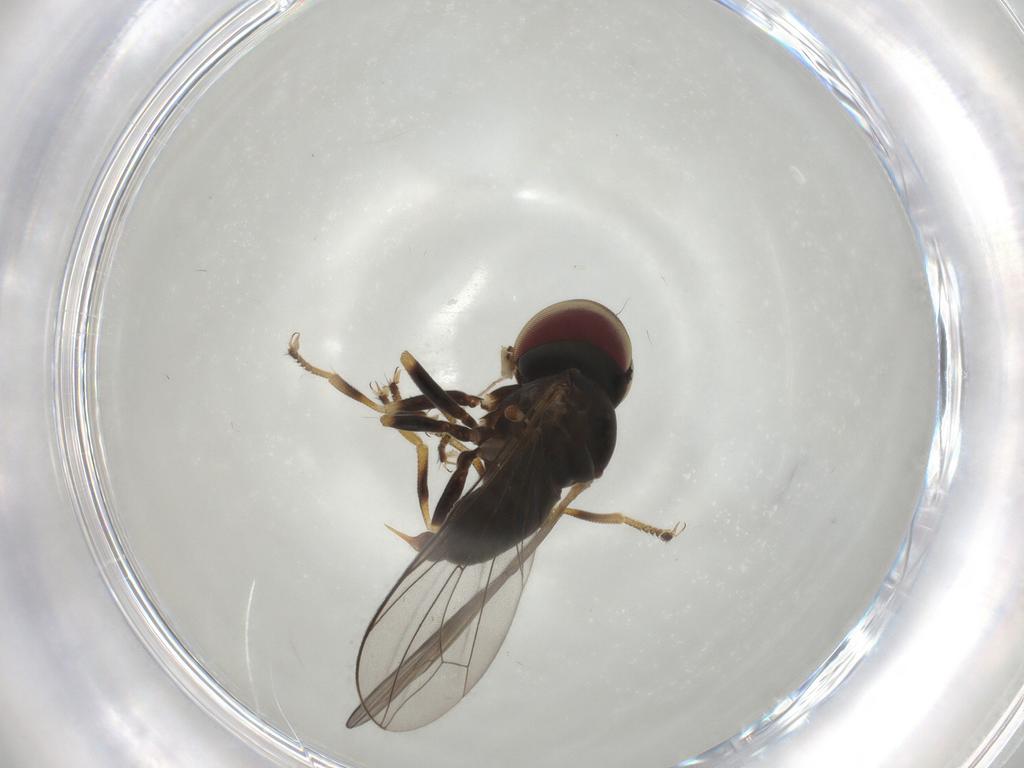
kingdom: Animalia
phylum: Arthropoda
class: Insecta
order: Diptera
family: Pipunculidae
